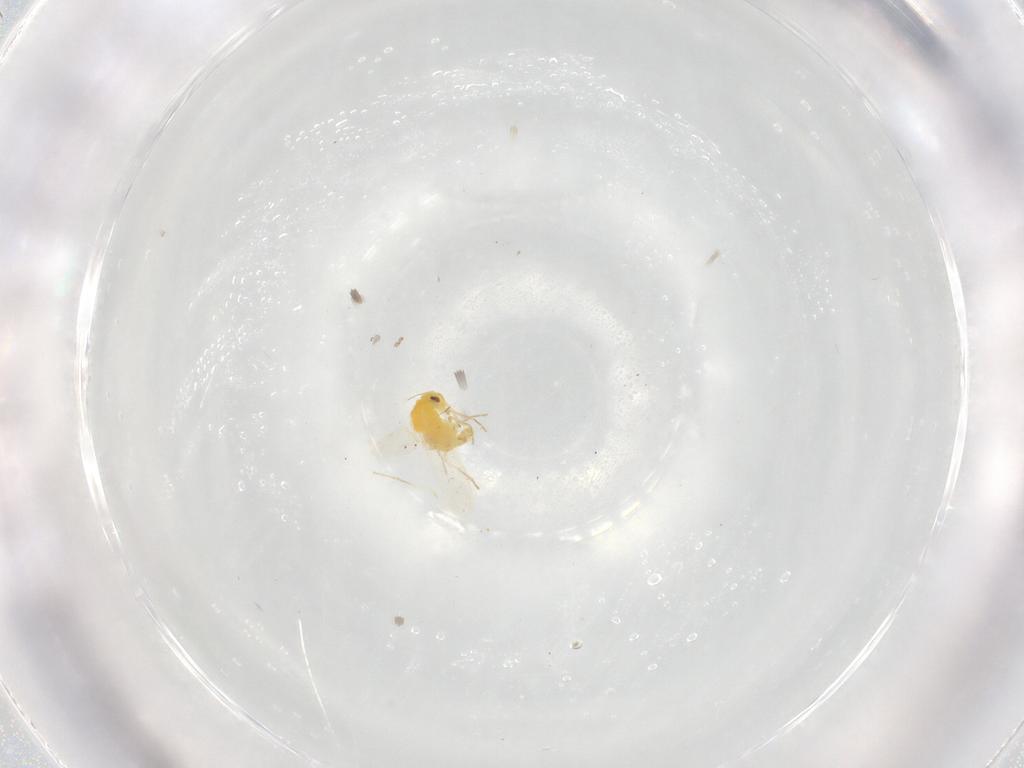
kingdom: Animalia
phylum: Arthropoda
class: Insecta
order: Hemiptera
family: Aleyrodidae
